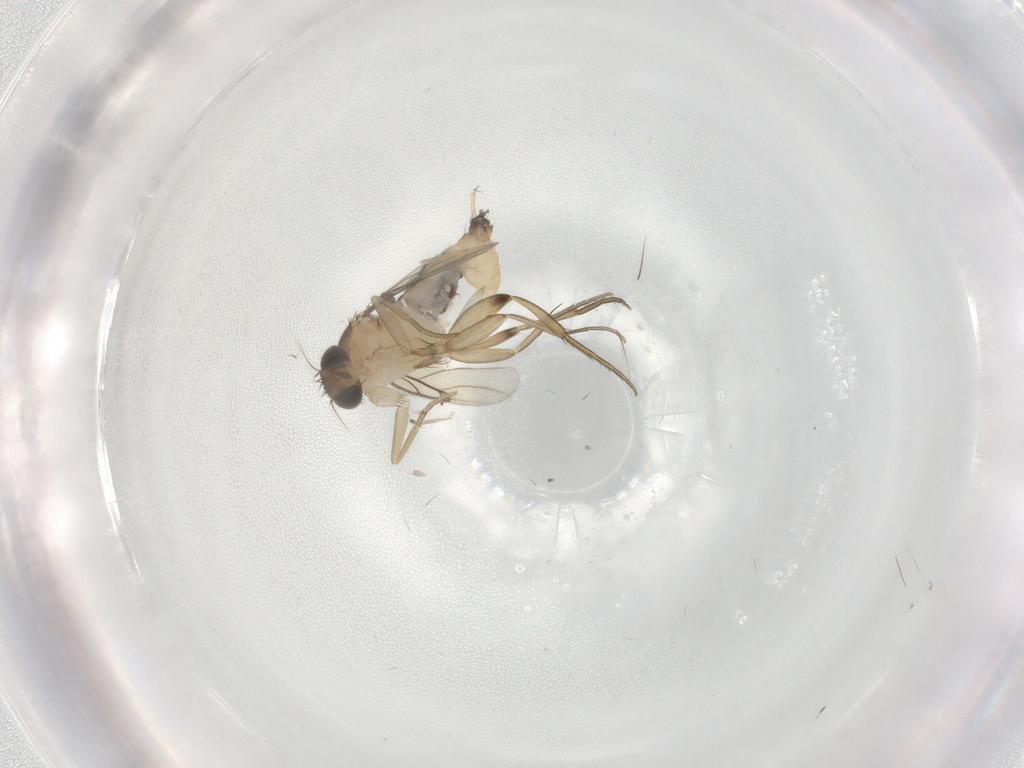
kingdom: Animalia
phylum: Arthropoda
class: Insecta
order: Diptera
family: Phoridae
